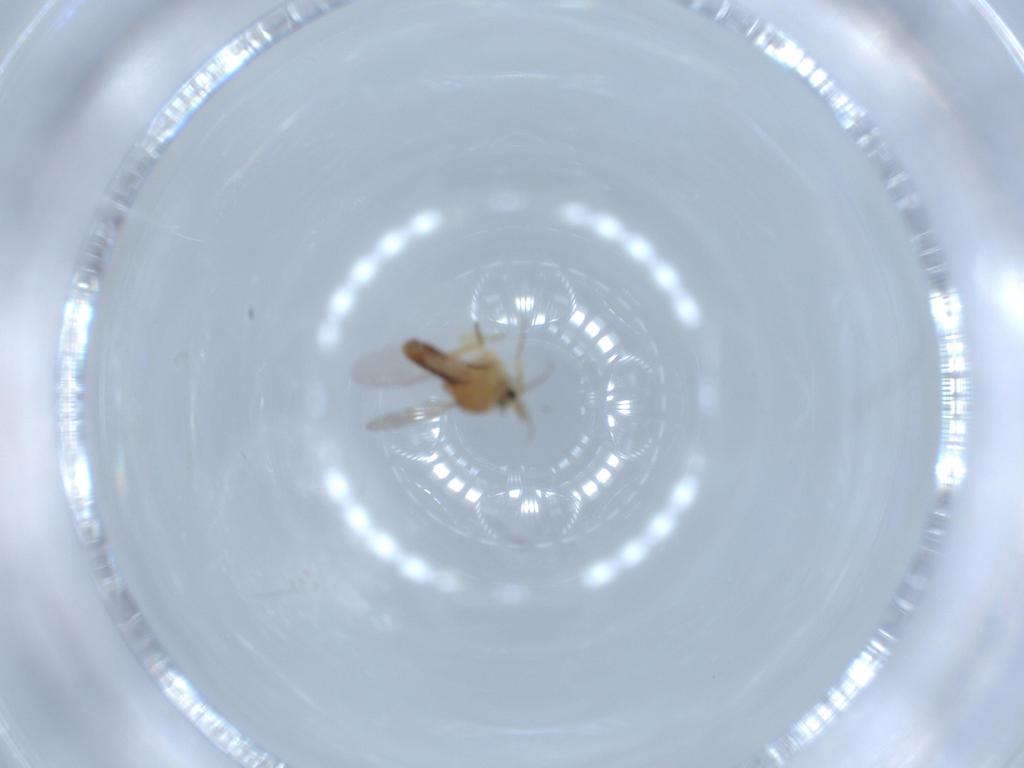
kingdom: Animalia
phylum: Arthropoda
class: Insecta
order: Diptera
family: Ceratopogonidae
